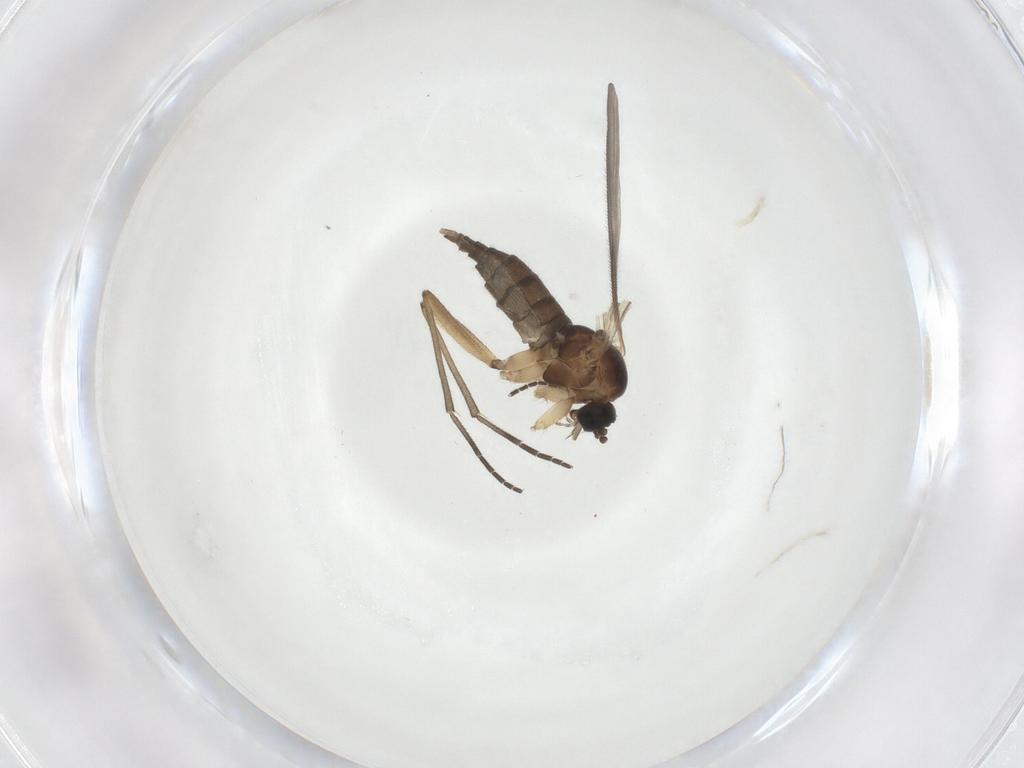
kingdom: Animalia
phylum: Arthropoda
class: Insecta
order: Diptera
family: Sciaridae
